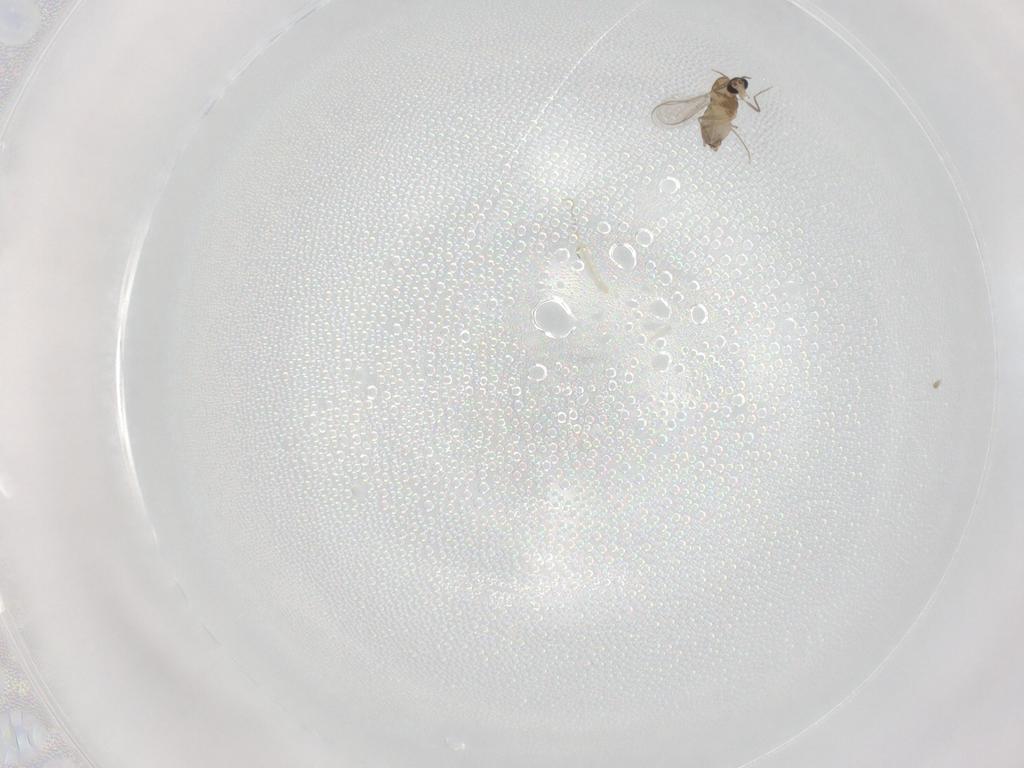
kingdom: Animalia
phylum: Arthropoda
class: Insecta
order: Diptera
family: Chironomidae
